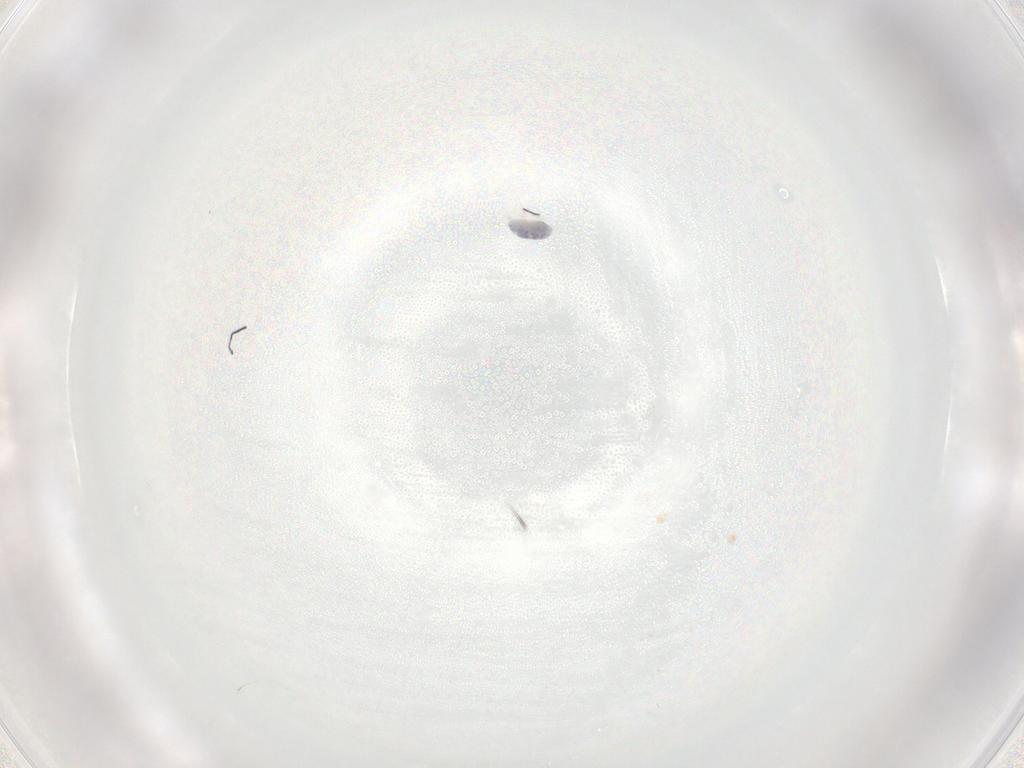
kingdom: Animalia
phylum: Arthropoda
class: Arachnida
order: Trombidiformes
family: Eupodidae
